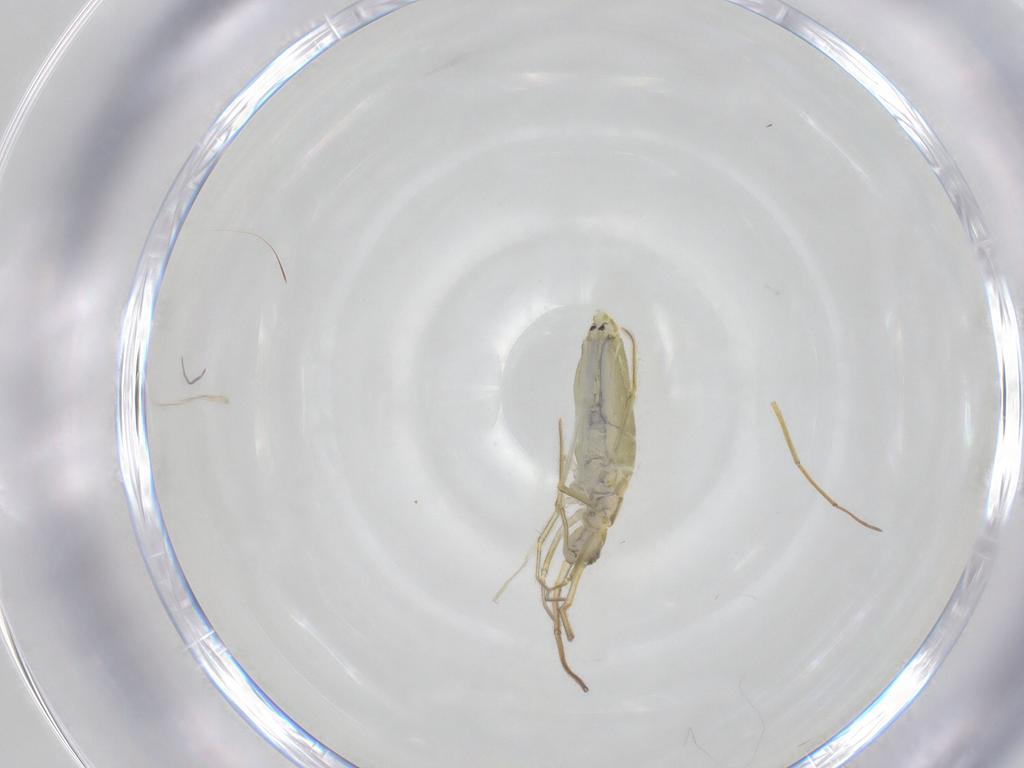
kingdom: Animalia
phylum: Arthropoda
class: Collembola
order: Entomobryomorpha
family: Entomobryidae
